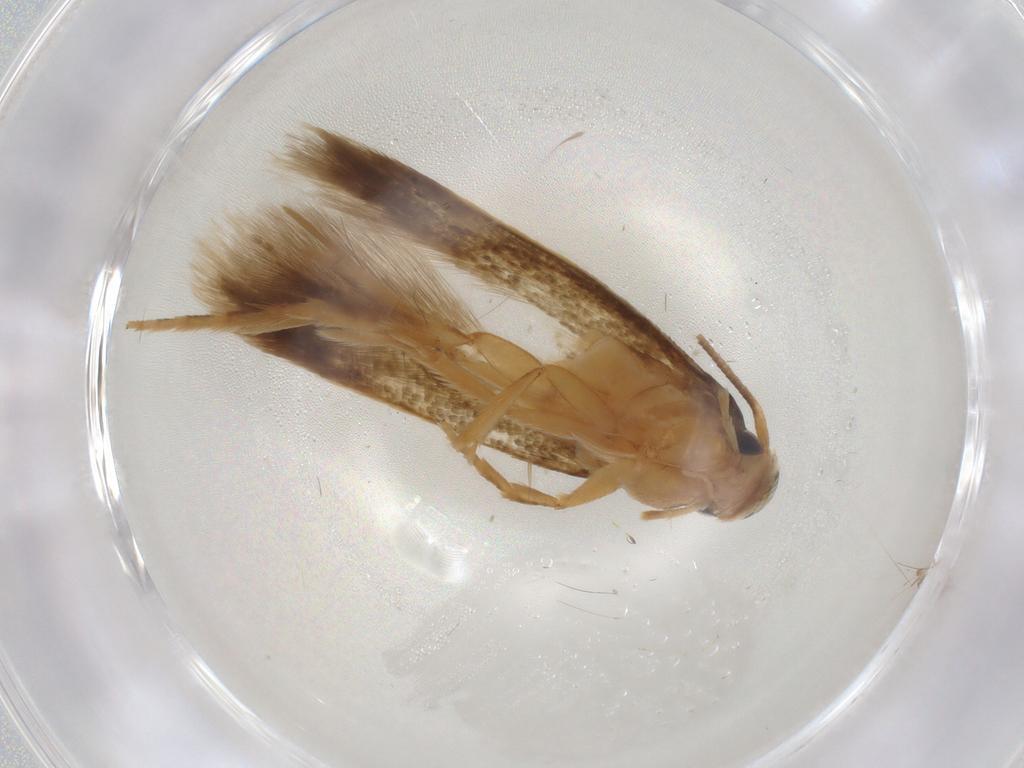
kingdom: Animalia
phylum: Arthropoda
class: Insecta
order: Lepidoptera
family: Elachistidae
